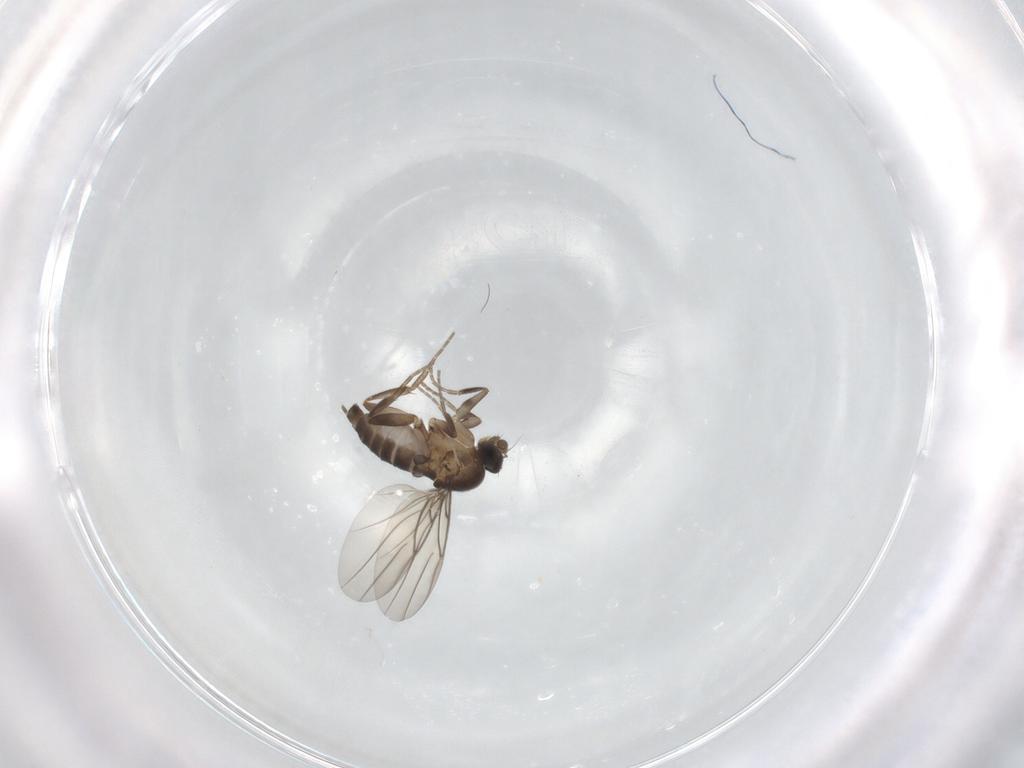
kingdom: Animalia
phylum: Arthropoda
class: Insecta
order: Diptera
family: Phoridae
